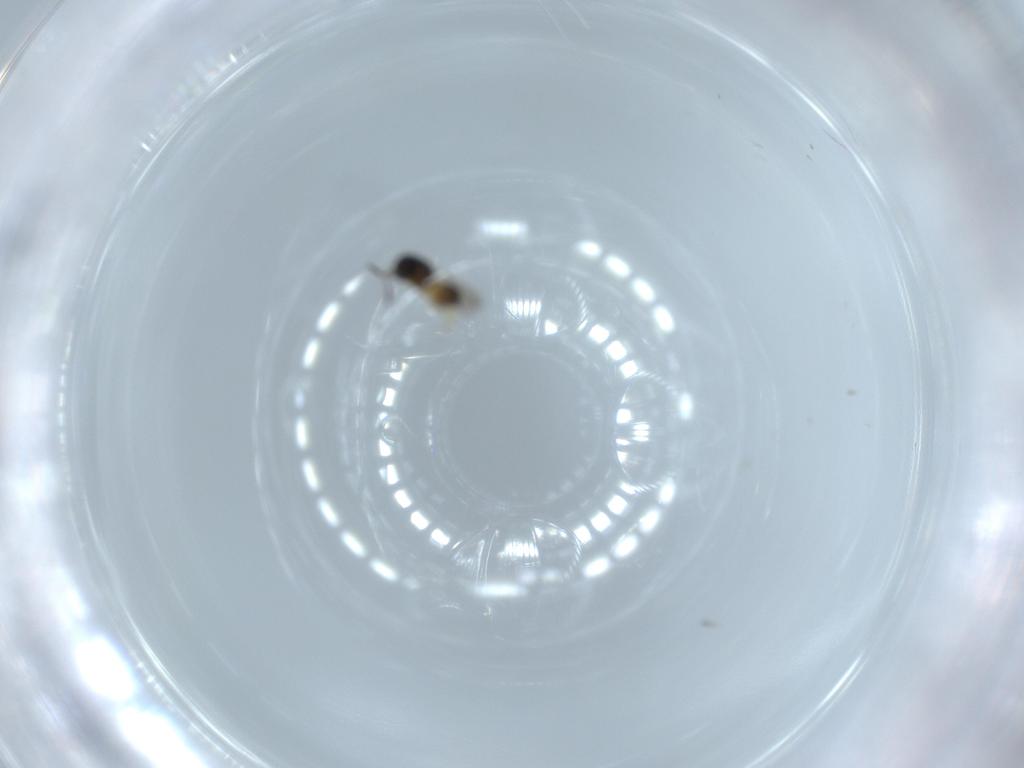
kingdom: Animalia
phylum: Arthropoda
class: Insecta
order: Hymenoptera
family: Scelionidae
